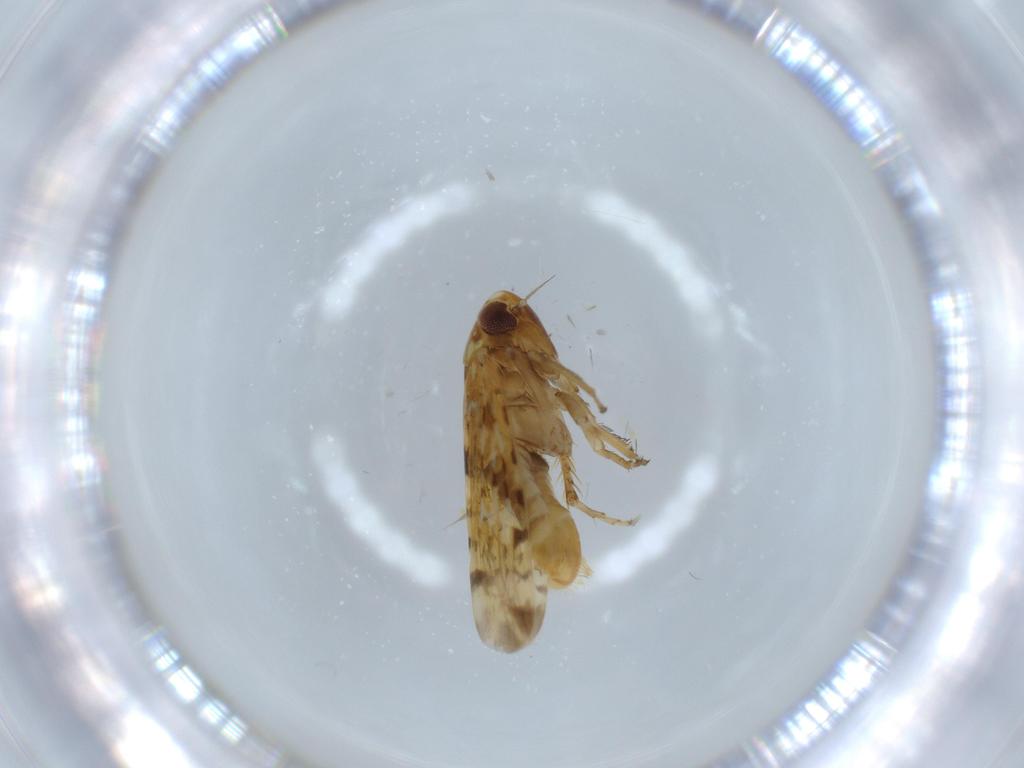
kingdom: Animalia
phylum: Arthropoda
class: Insecta
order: Hemiptera
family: Cicadellidae
